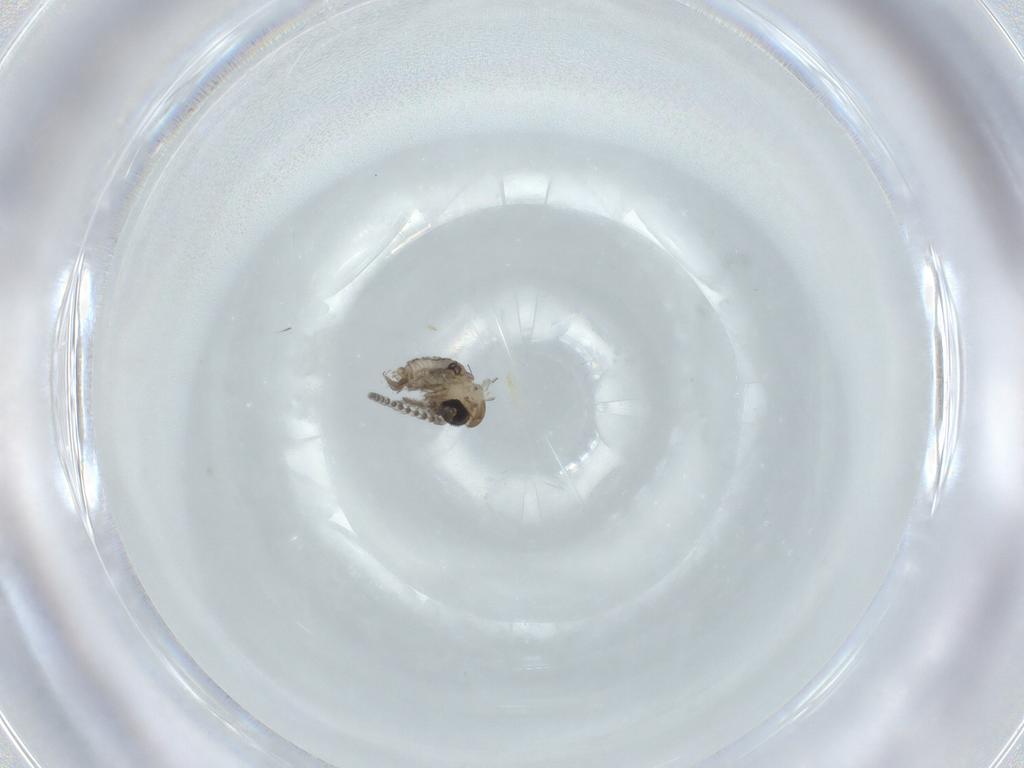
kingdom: Animalia
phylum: Arthropoda
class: Insecta
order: Diptera
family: Psychodidae
